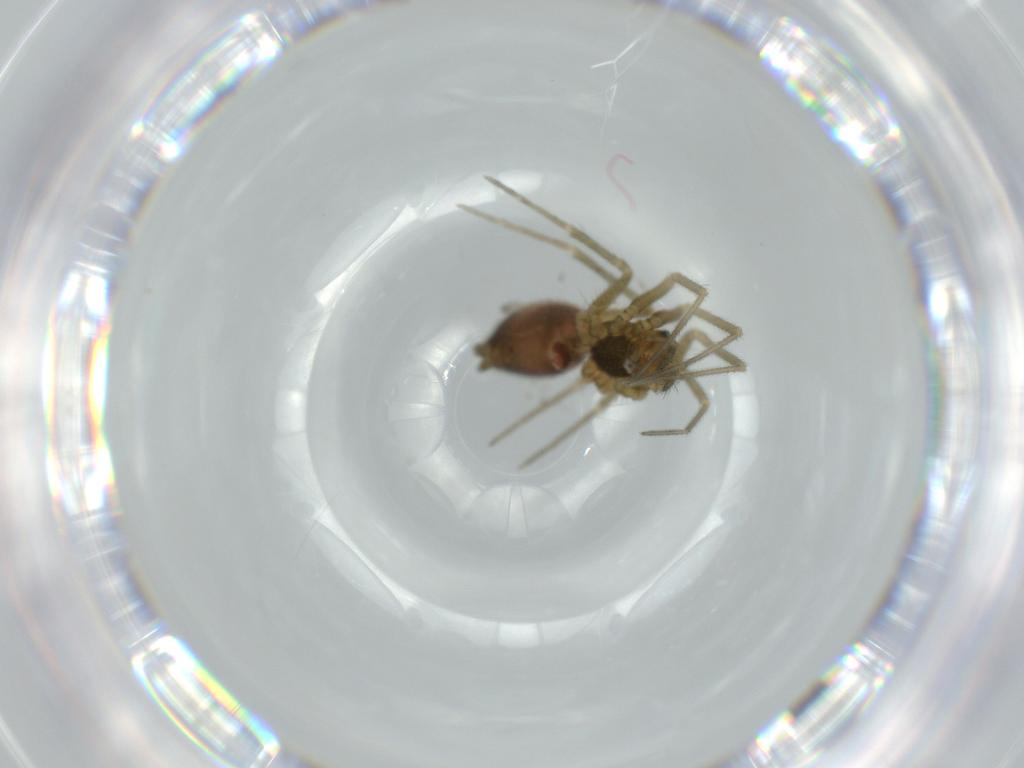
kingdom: Animalia
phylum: Arthropoda
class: Arachnida
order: Araneae
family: Linyphiidae
